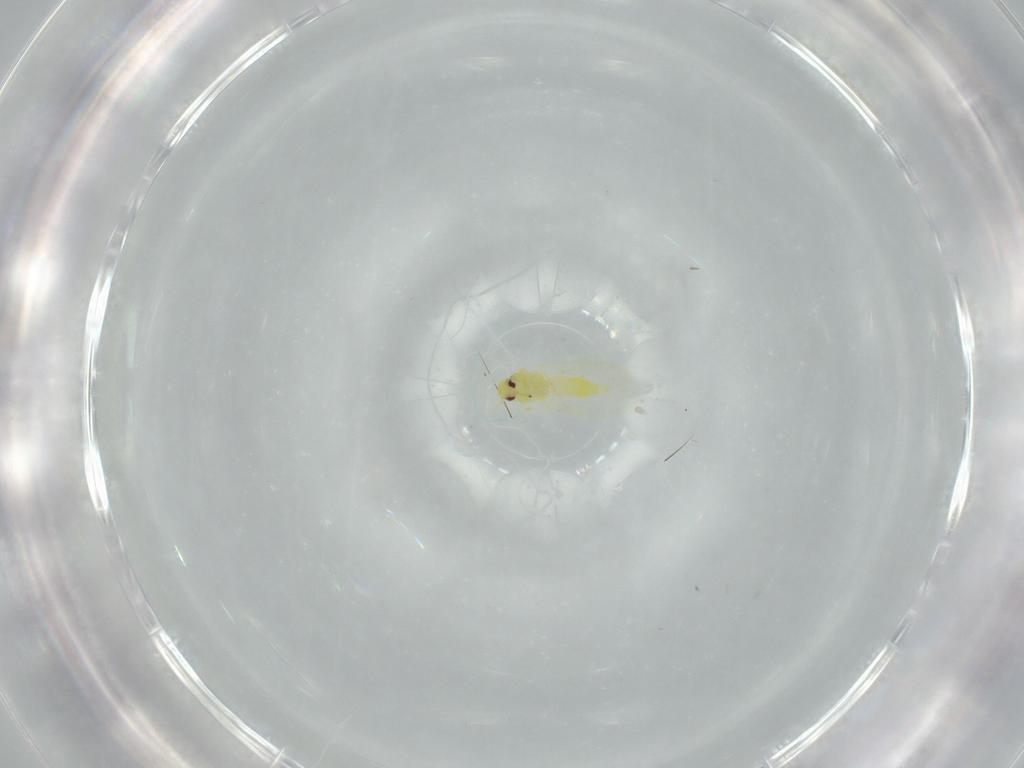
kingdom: Animalia
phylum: Arthropoda
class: Insecta
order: Hemiptera
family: Aleyrodidae
